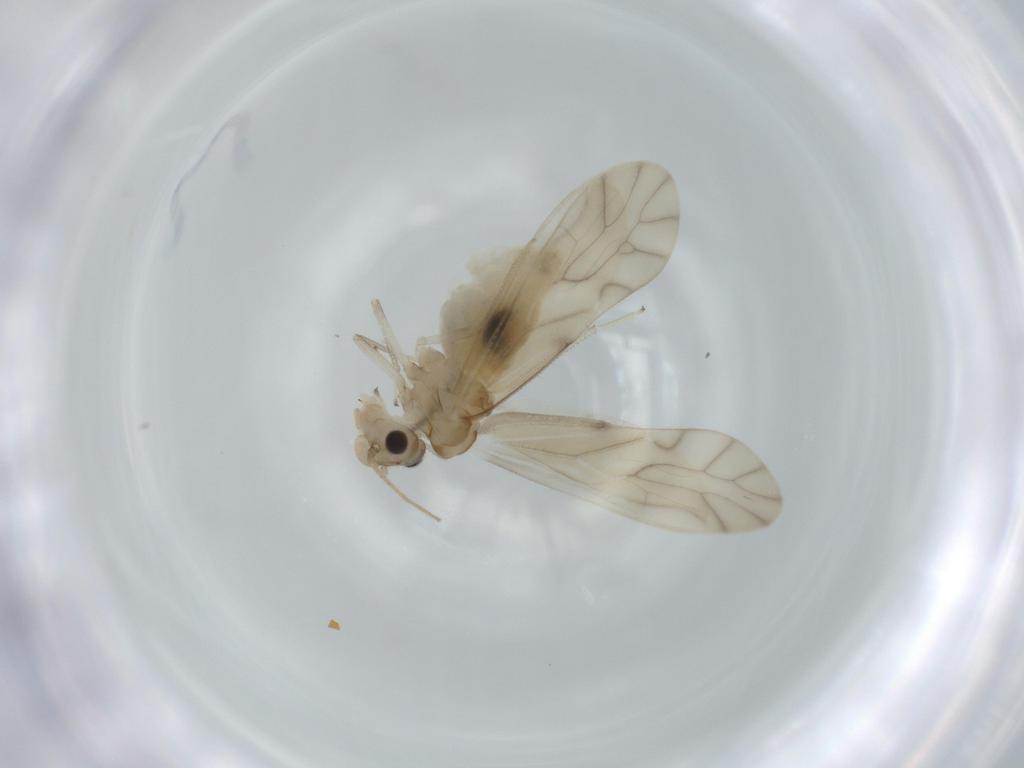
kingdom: Animalia
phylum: Arthropoda
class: Insecta
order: Psocodea
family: Caeciliusidae
